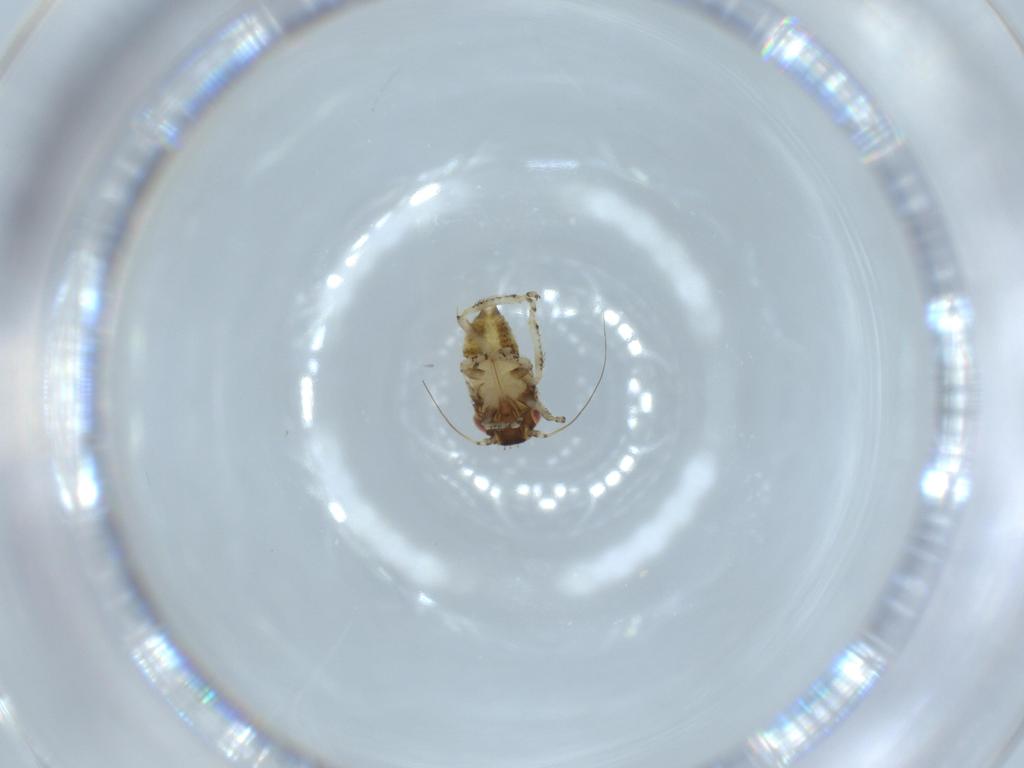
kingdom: Animalia
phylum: Arthropoda
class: Insecta
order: Hemiptera
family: Cicadellidae
